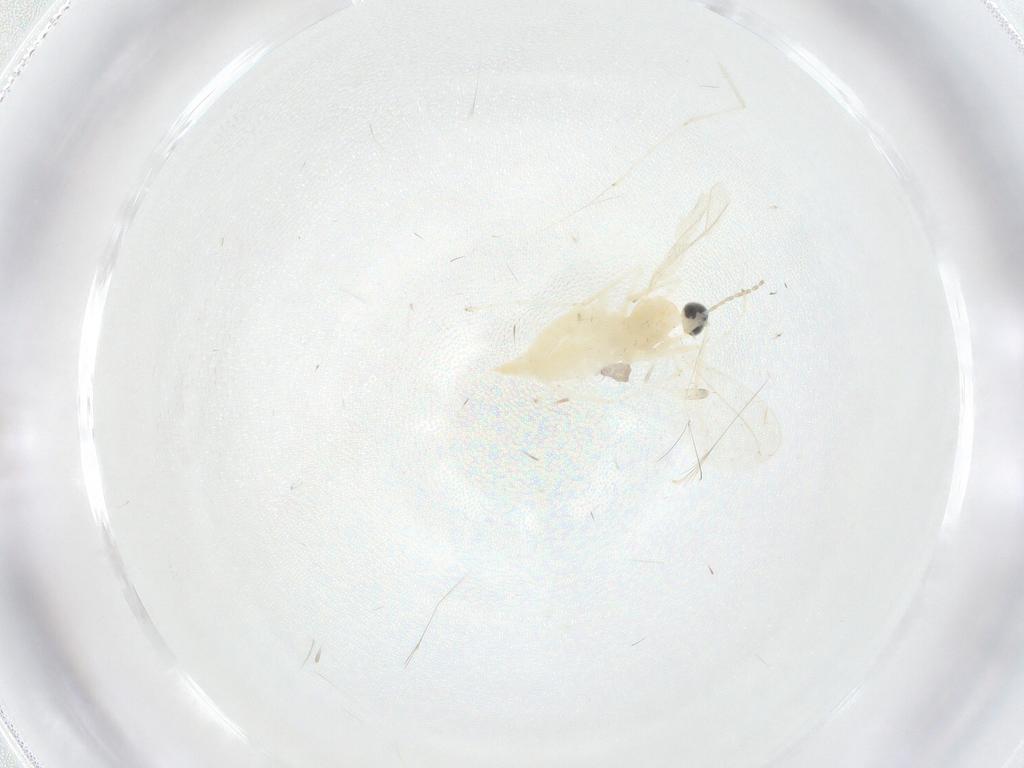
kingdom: Animalia
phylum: Arthropoda
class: Insecta
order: Diptera
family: Cecidomyiidae
